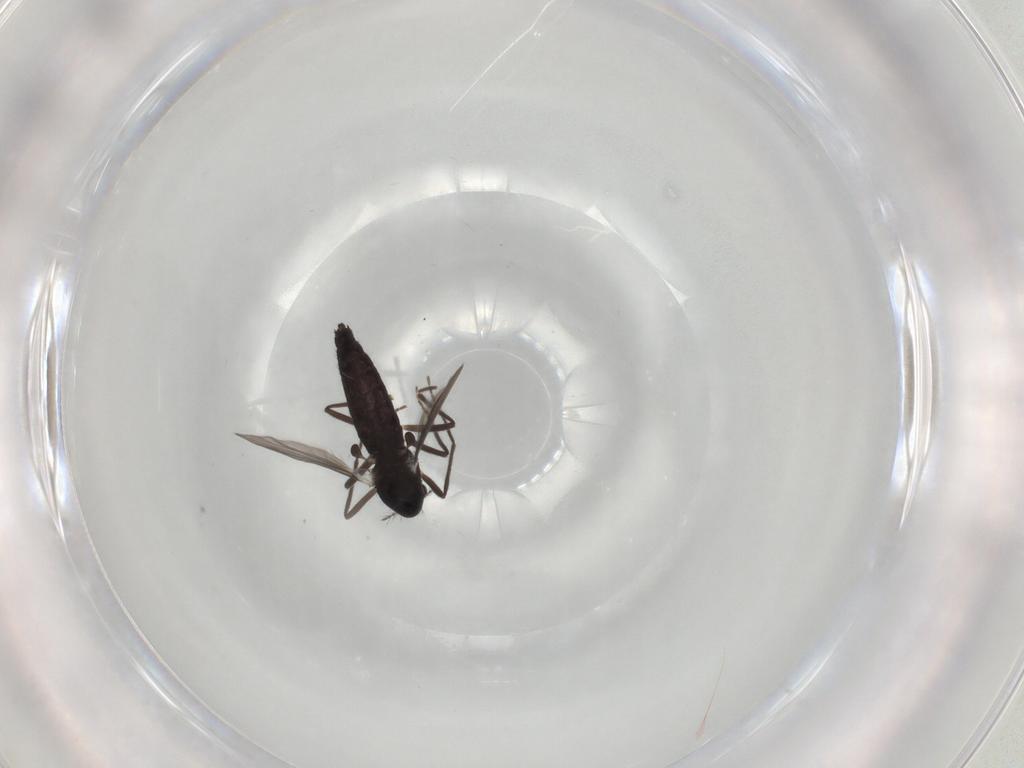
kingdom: Animalia
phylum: Arthropoda
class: Insecta
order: Diptera
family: Chironomidae
